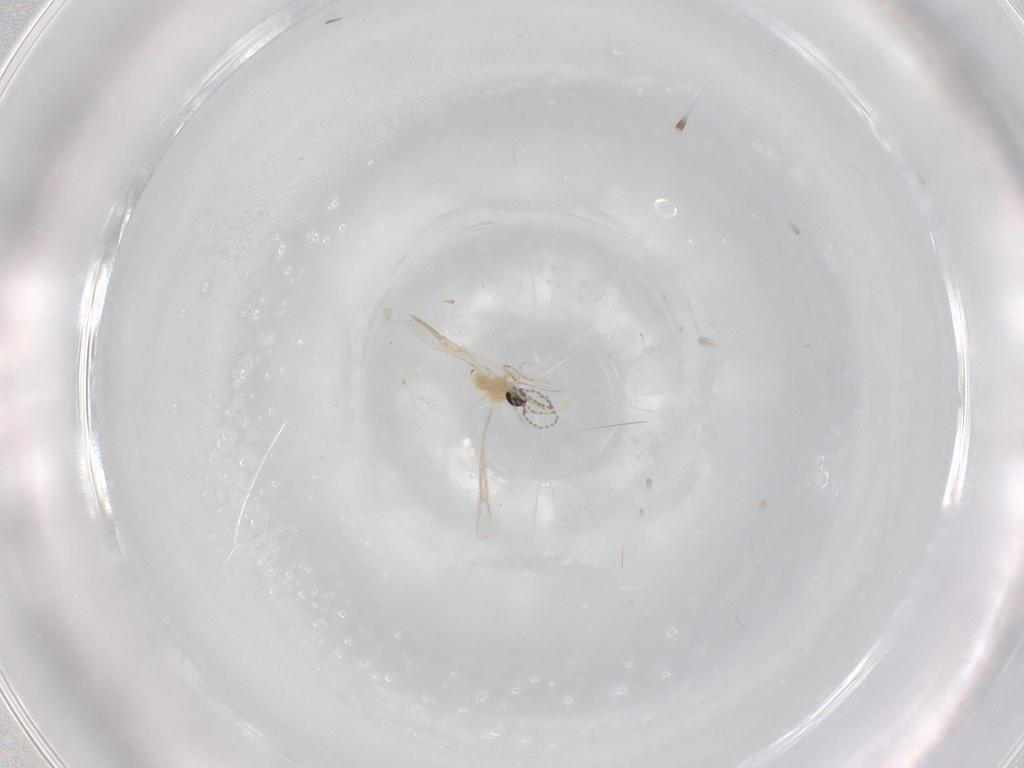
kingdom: Animalia
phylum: Arthropoda
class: Insecta
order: Diptera
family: Cecidomyiidae
